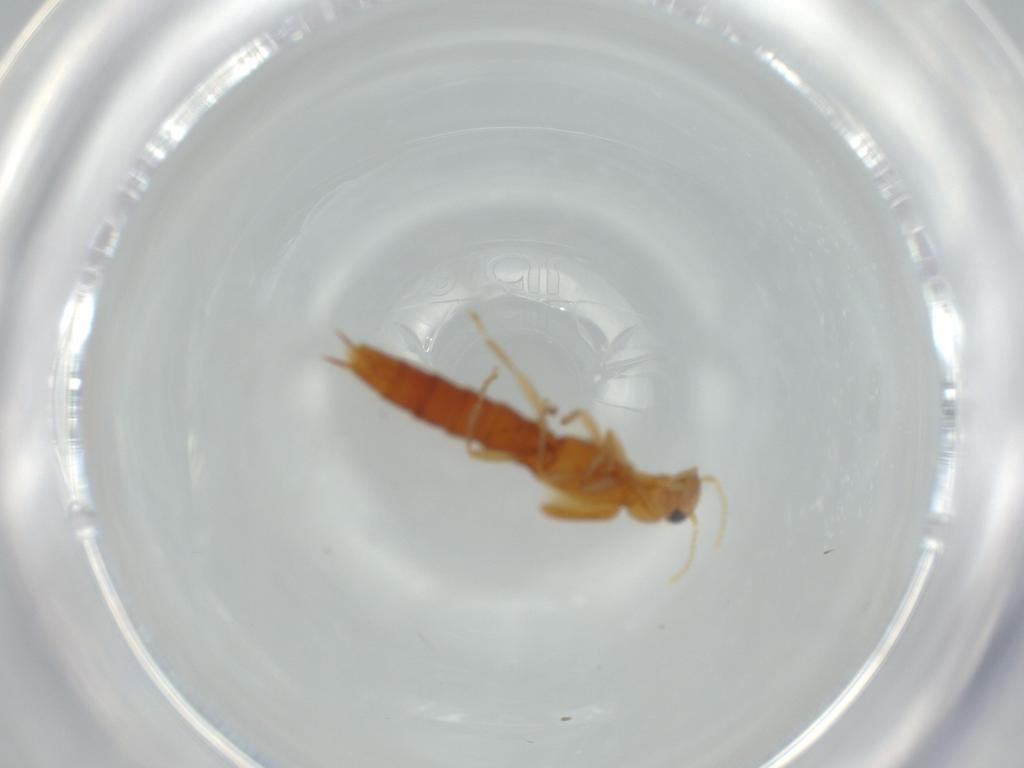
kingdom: Animalia
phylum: Arthropoda
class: Insecta
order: Coleoptera
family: Staphylinidae
